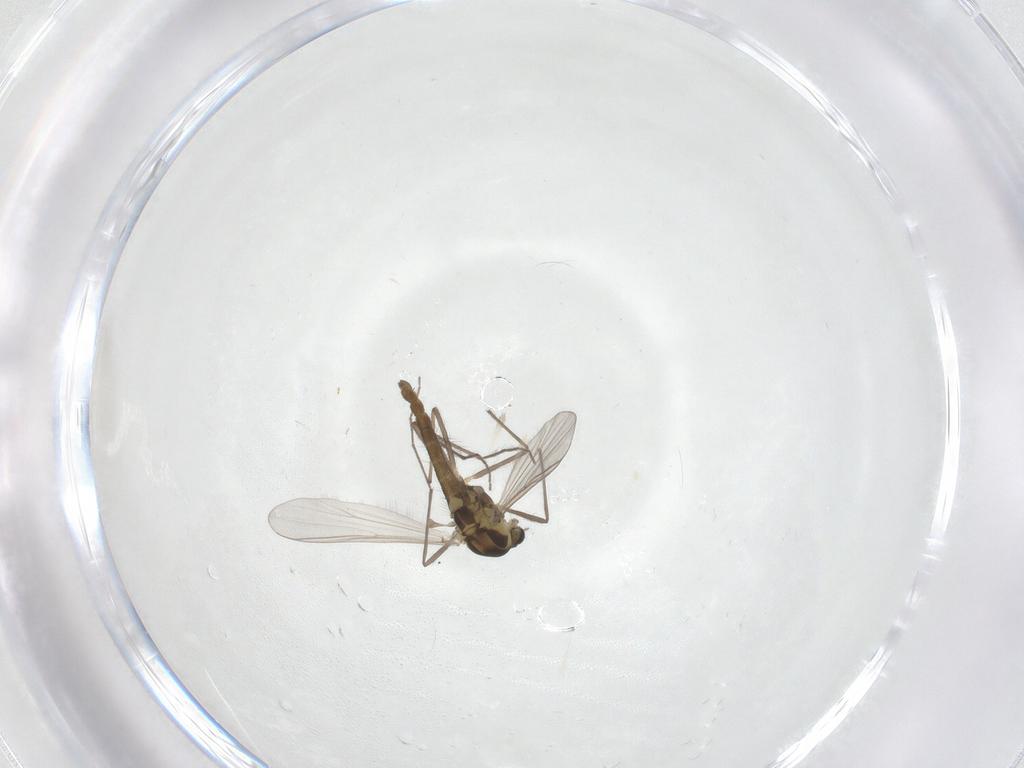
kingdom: Animalia
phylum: Arthropoda
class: Insecta
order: Diptera
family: Chironomidae
